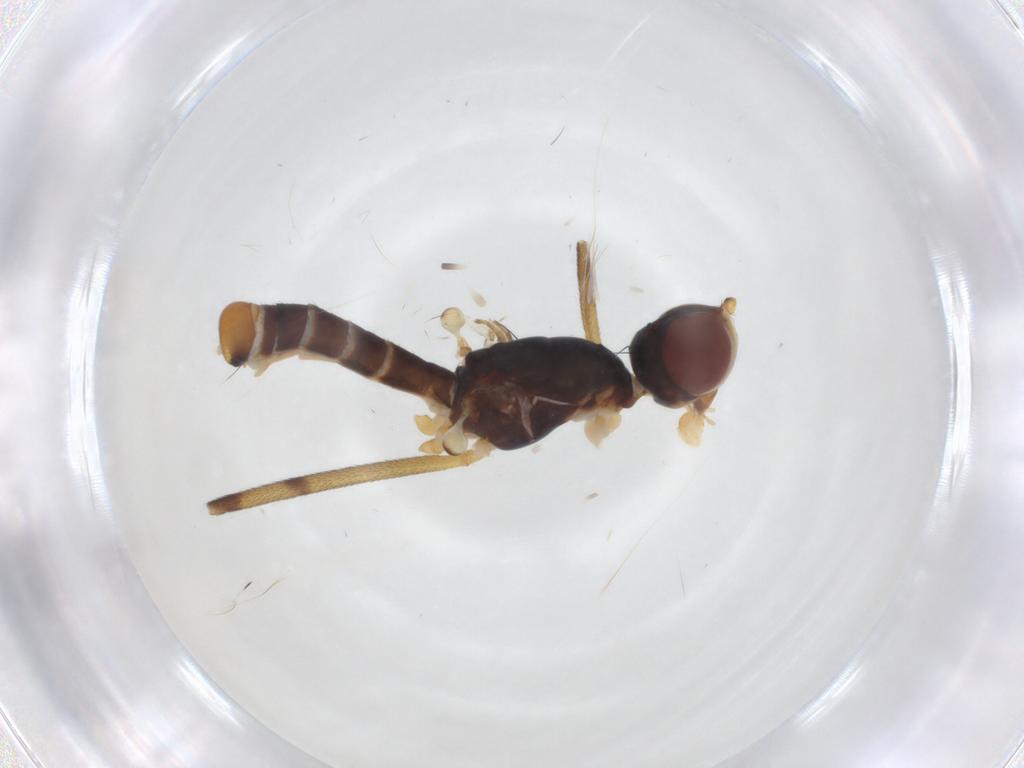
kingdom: Animalia
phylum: Arthropoda
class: Insecta
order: Diptera
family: Micropezidae
